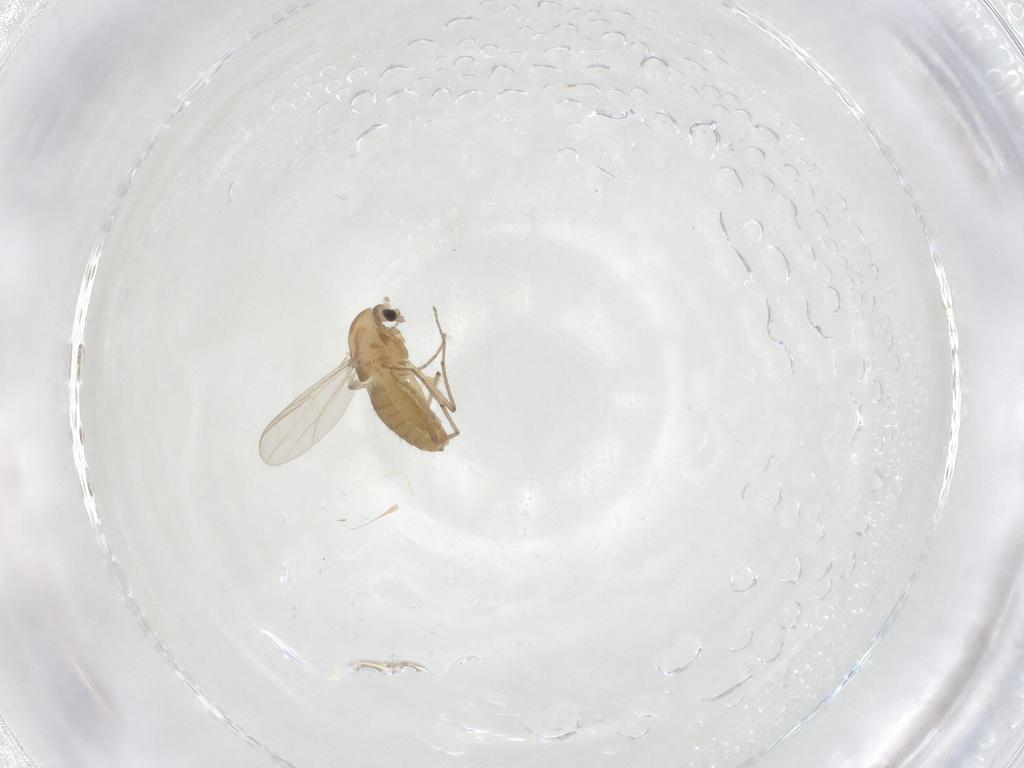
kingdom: Animalia
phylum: Arthropoda
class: Insecta
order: Diptera
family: Chironomidae
